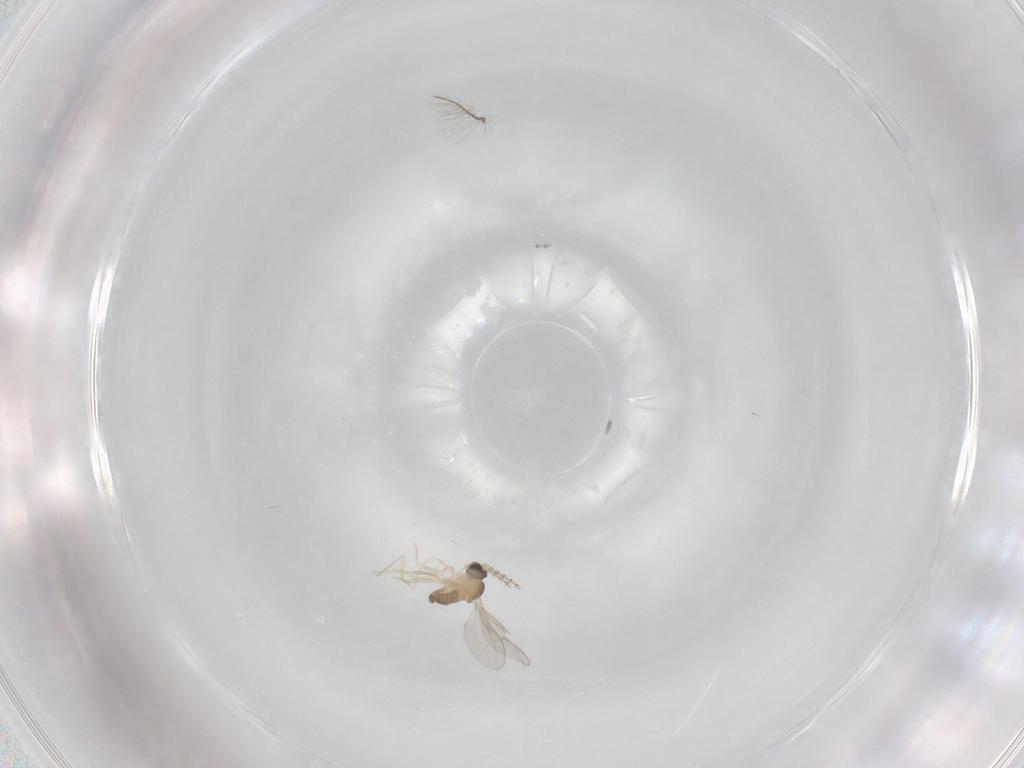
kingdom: Animalia
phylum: Arthropoda
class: Insecta
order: Diptera
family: Chironomidae
